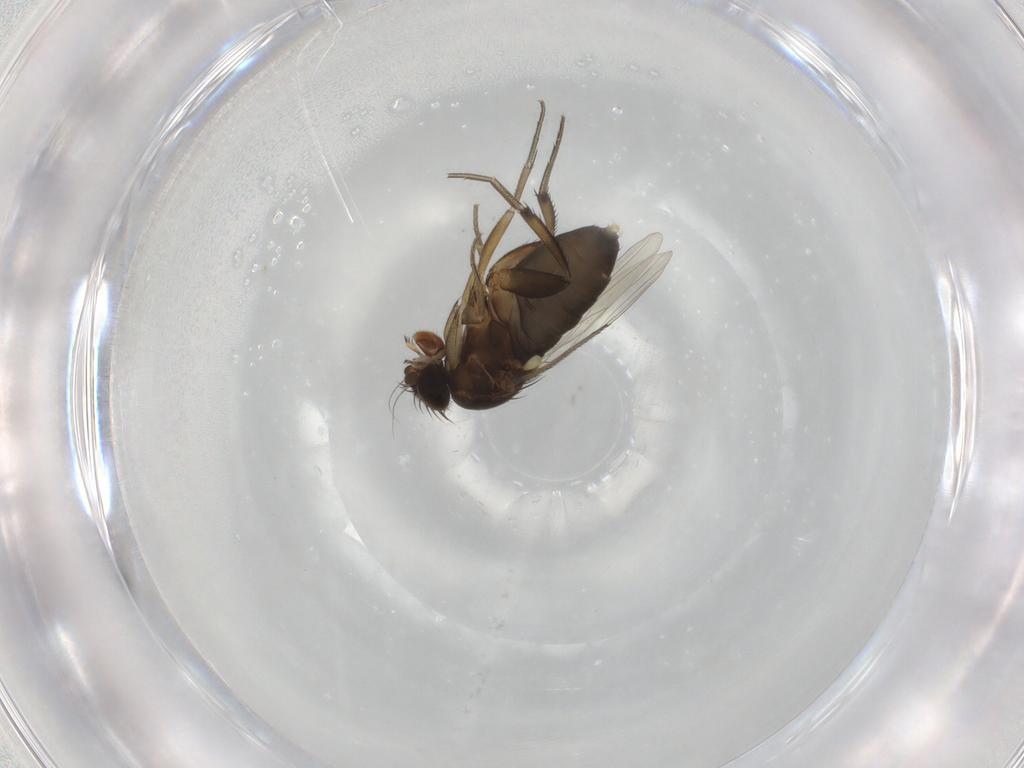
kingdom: Animalia
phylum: Arthropoda
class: Insecta
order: Diptera
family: Phoridae
